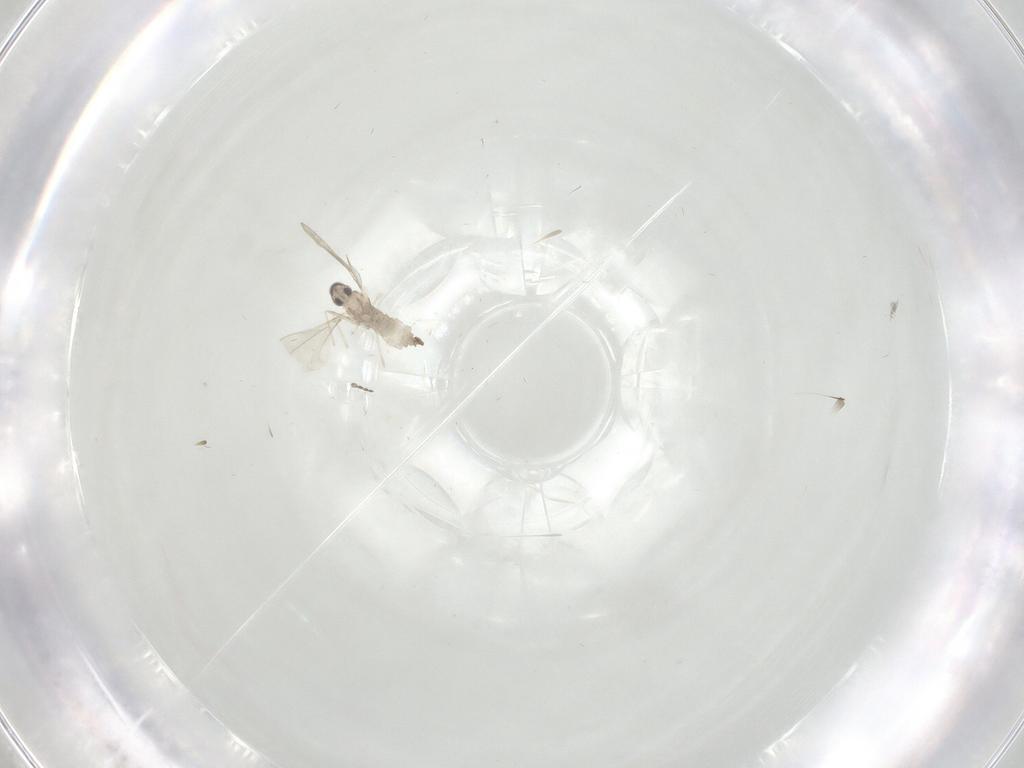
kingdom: Animalia
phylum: Arthropoda
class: Insecta
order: Diptera
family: Cecidomyiidae
